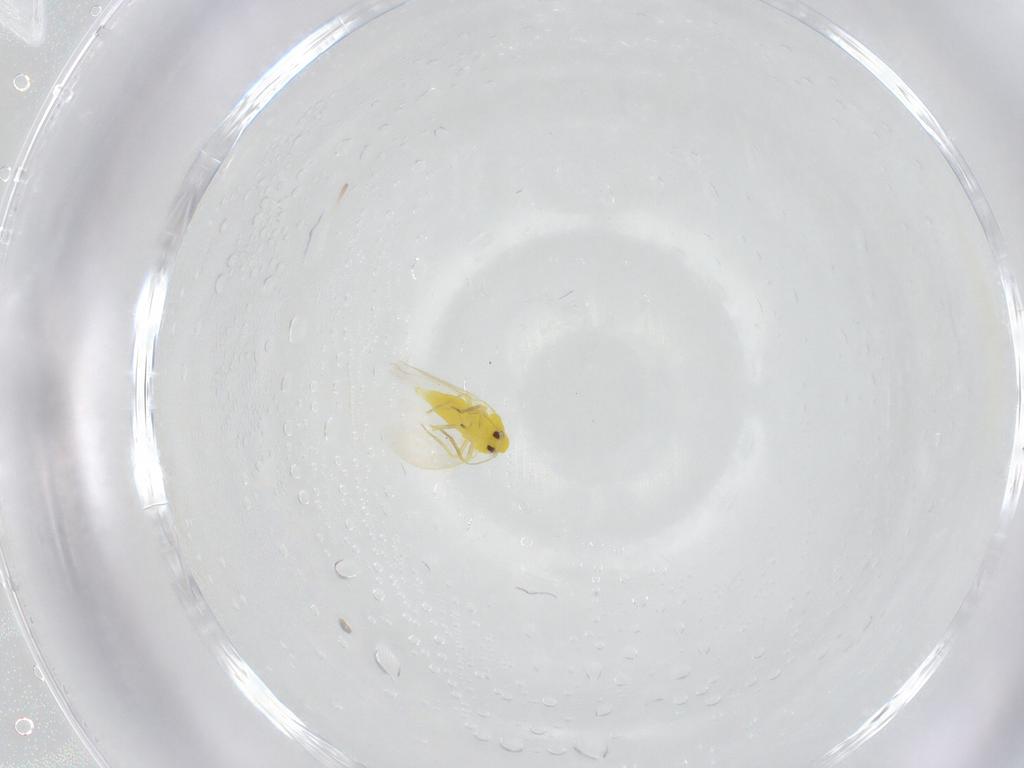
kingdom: Animalia
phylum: Arthropoda
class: Insecta
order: Hemiptera
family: Aleyrodidae
